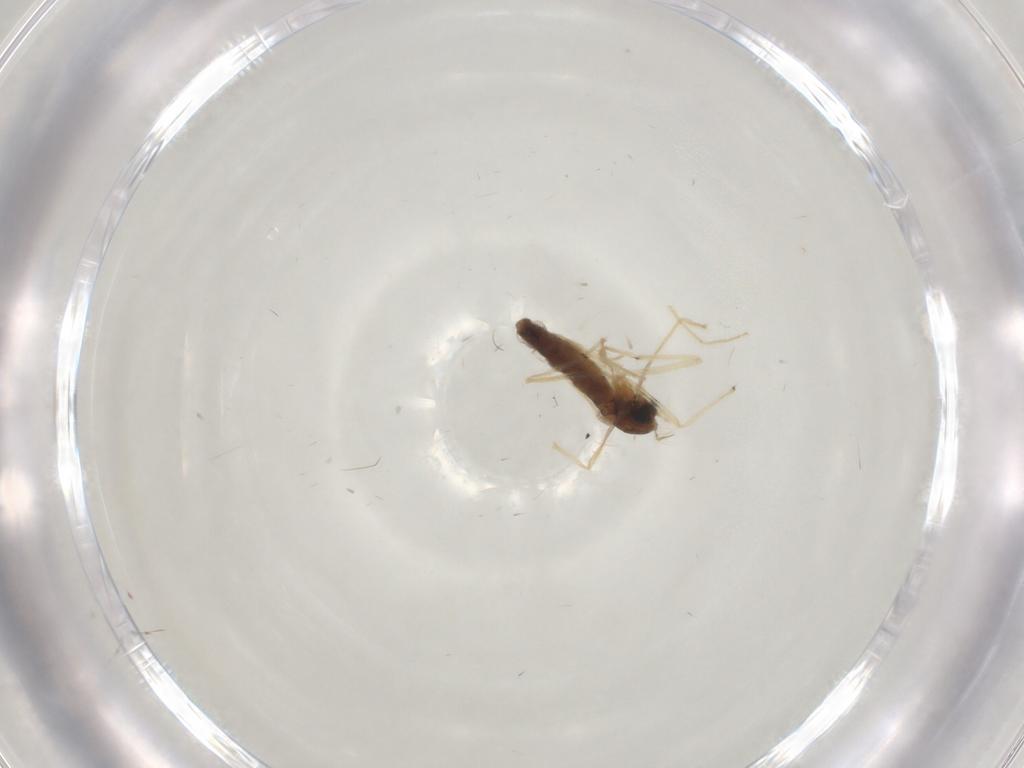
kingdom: Animalia
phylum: Arthropoda
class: Insecta
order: Diptera
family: Chironomidae
